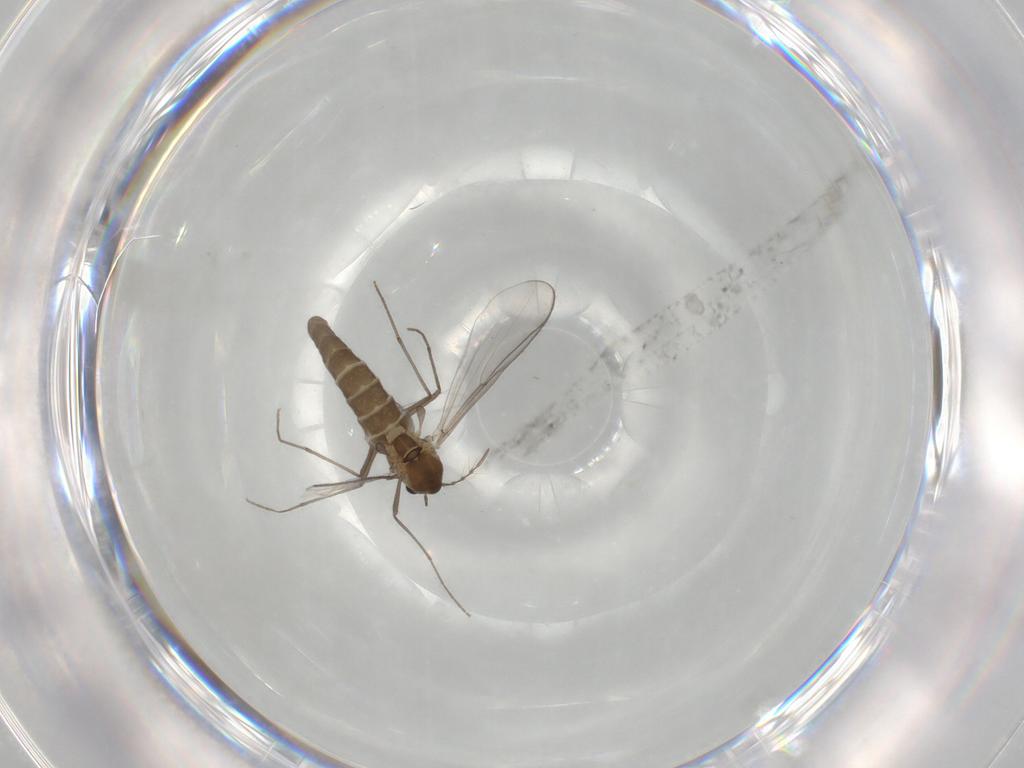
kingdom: Animalia
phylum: Arthropoda
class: Insecta
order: Diptera
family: Chironomidae
